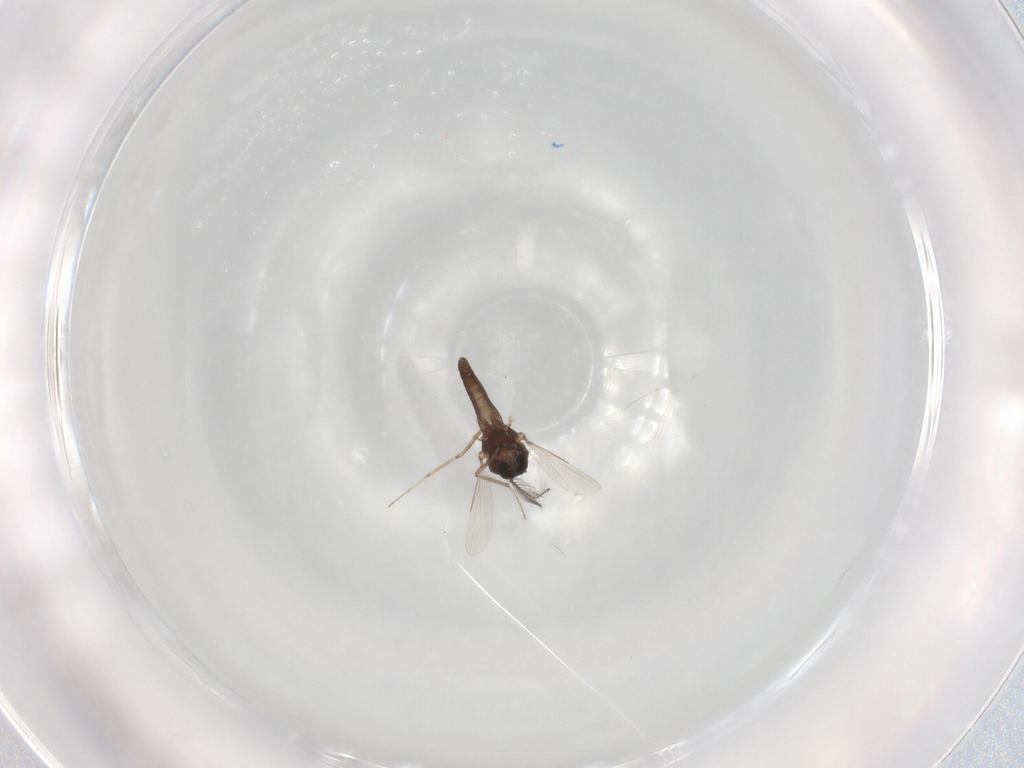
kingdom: Animalia
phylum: Arthropoda
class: Insecta
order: Diptera
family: Ceratopogonidae
